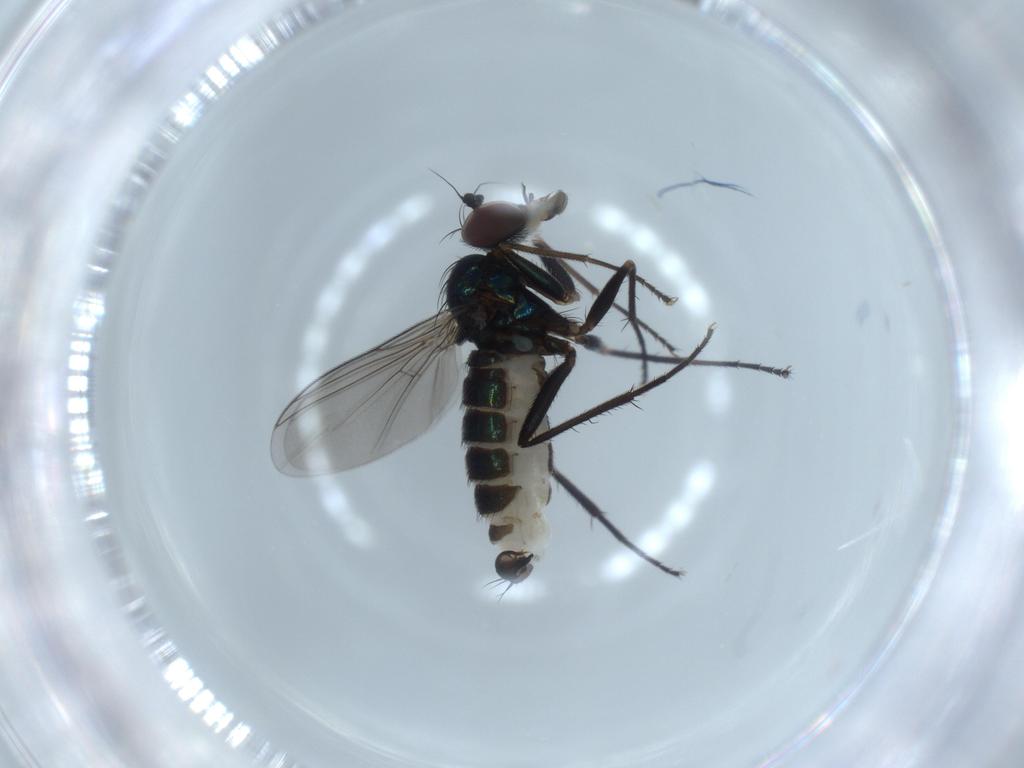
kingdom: Animalia
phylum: Arthropoda
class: Insecta
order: Diptera
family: Dolichopodidae
